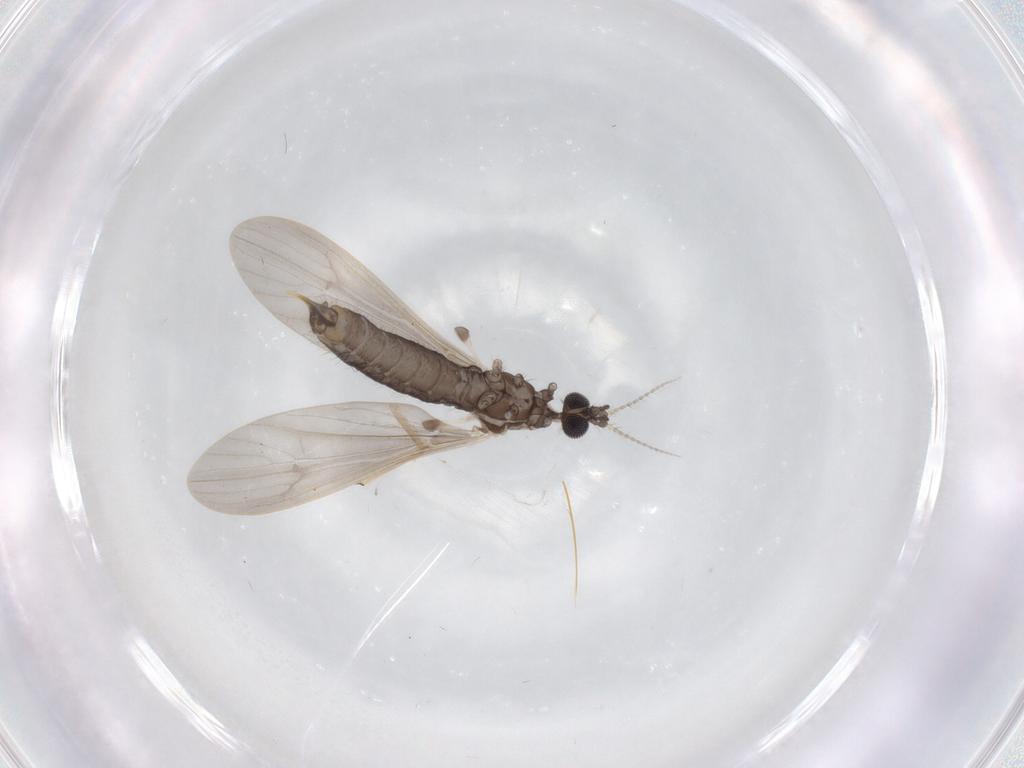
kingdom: Animalia
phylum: Arthropoda
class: Insecta
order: Diptera
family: Limoniidae
